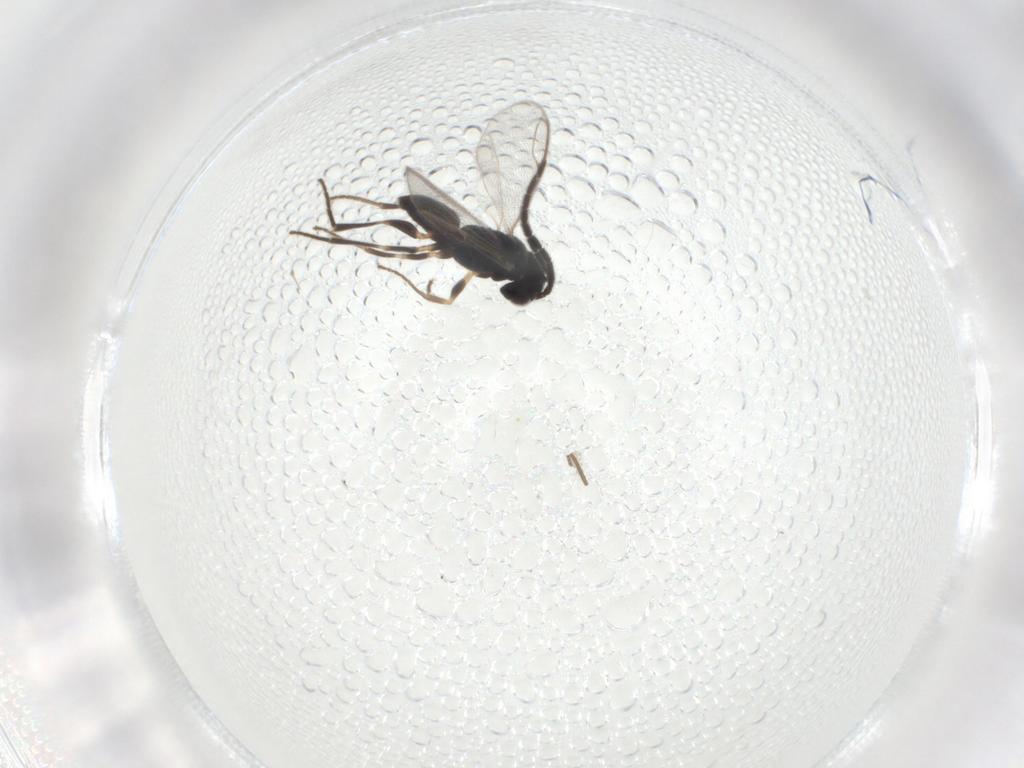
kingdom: Animalia
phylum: Arthropoda
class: Insecta
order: Hymenoptera
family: Dryinidae
